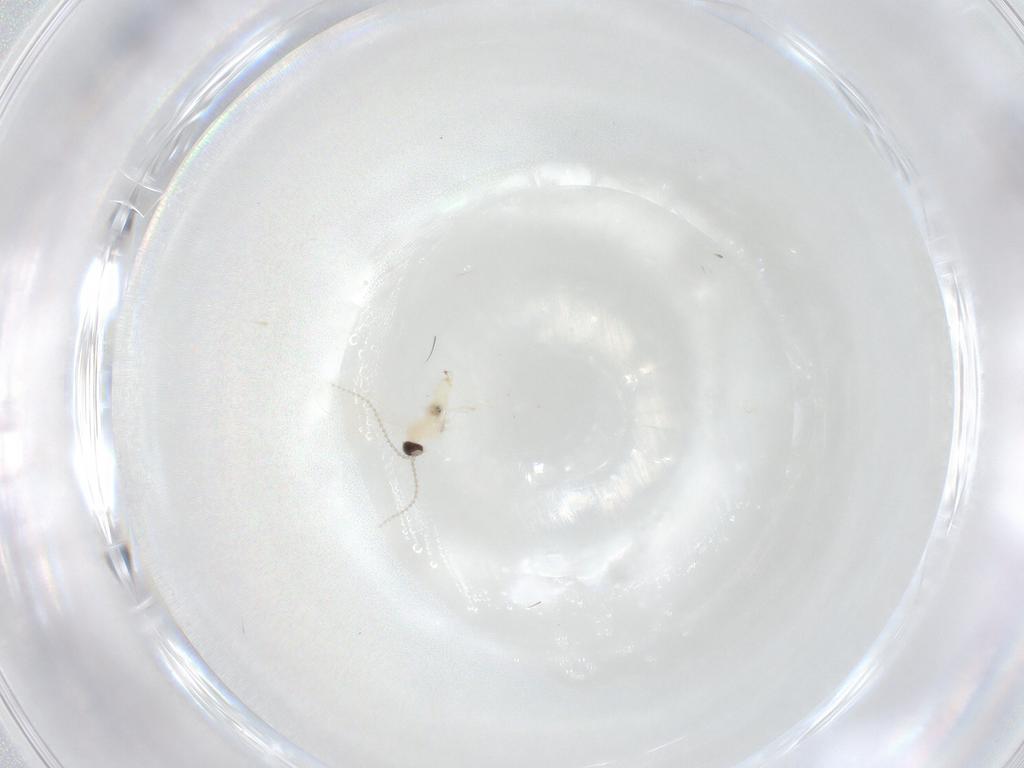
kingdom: Animalia
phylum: Arthropoda
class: Insecta
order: Diptera
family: Cecidomyiidae
